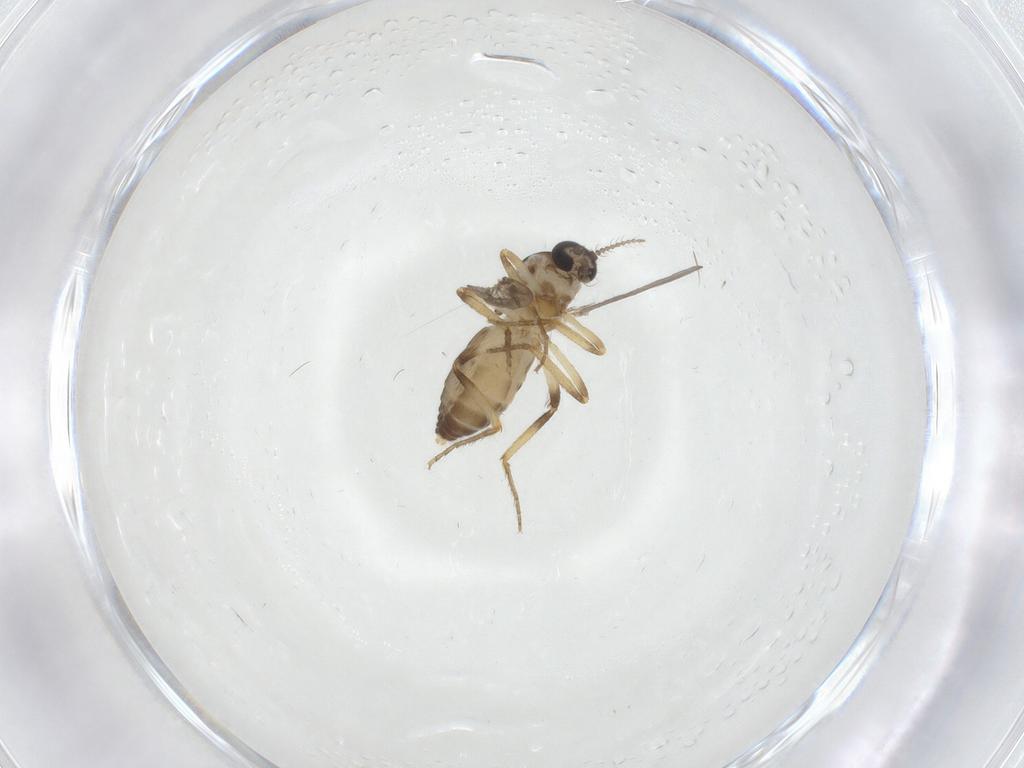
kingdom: Animalia
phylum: Arthropoda
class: Insecta
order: Diptera
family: Ceratopogonidae
